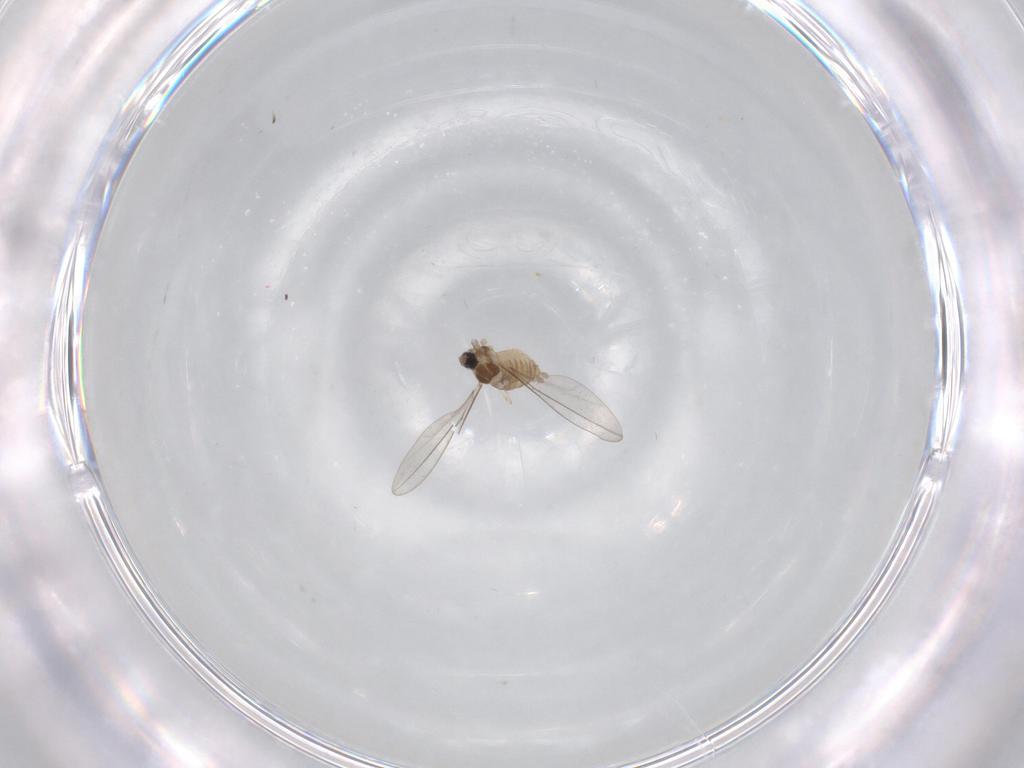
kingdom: Animalia
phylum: Arthropoda
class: Insecta
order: Diptera
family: Cecidomyiidae
